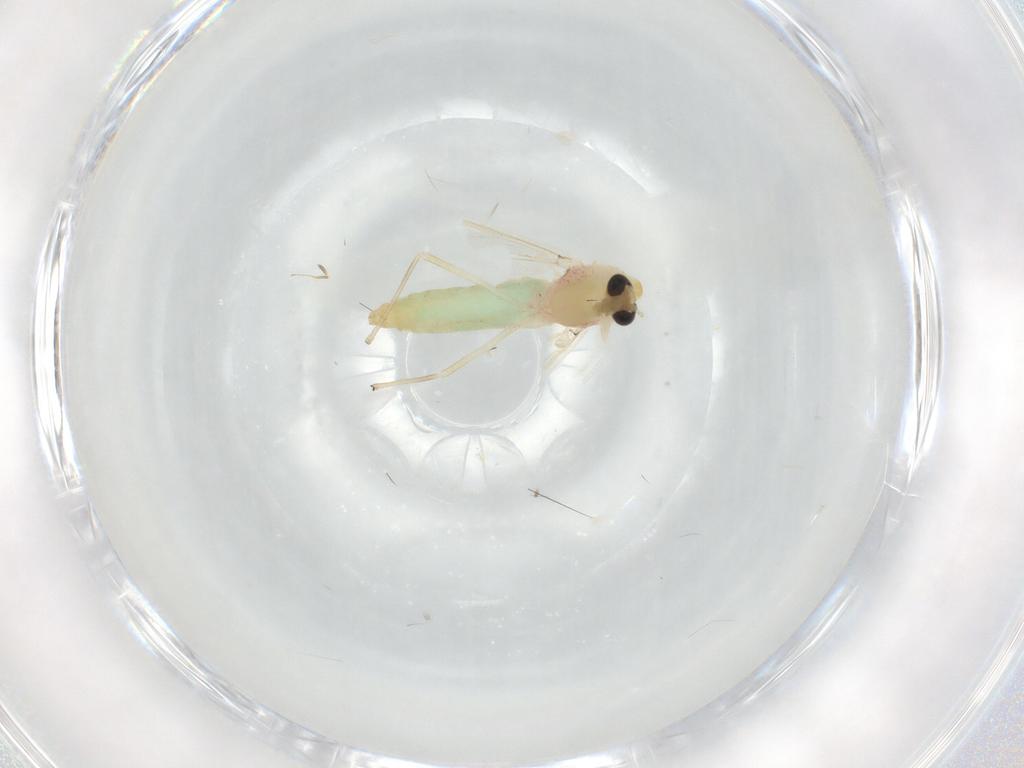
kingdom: Animalia
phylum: Arthropoda
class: Insecta
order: Diptera
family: Chironomidae
